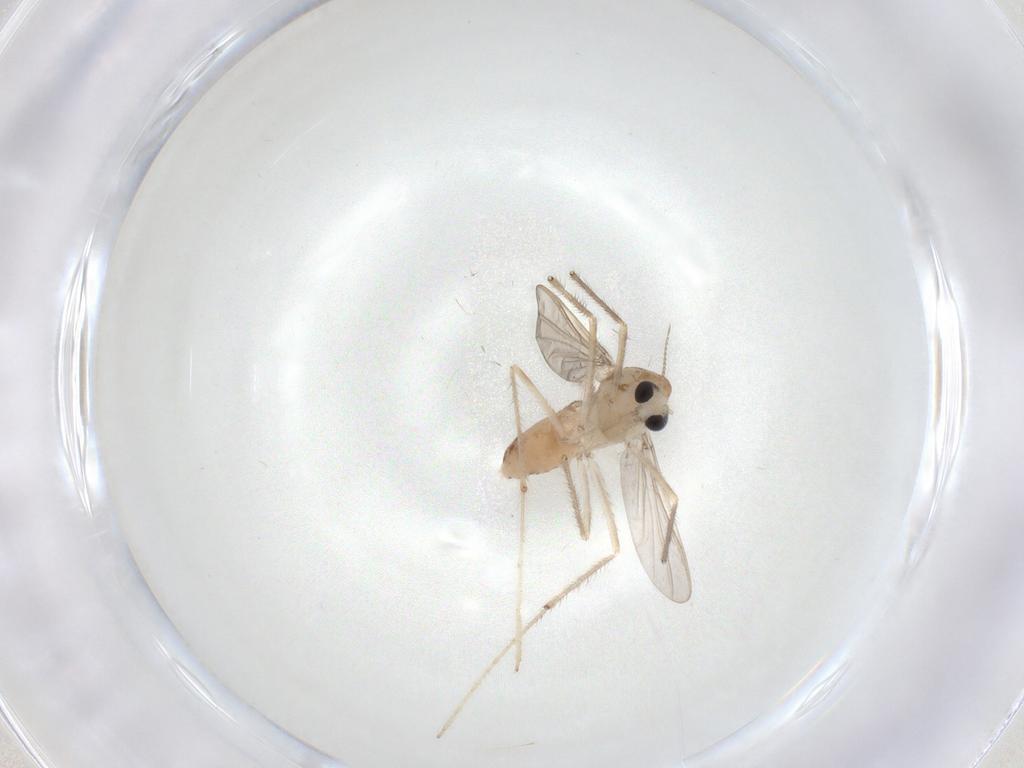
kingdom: Animalia
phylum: Arthropoda
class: Insecta
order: Diptera
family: Chironomidae
